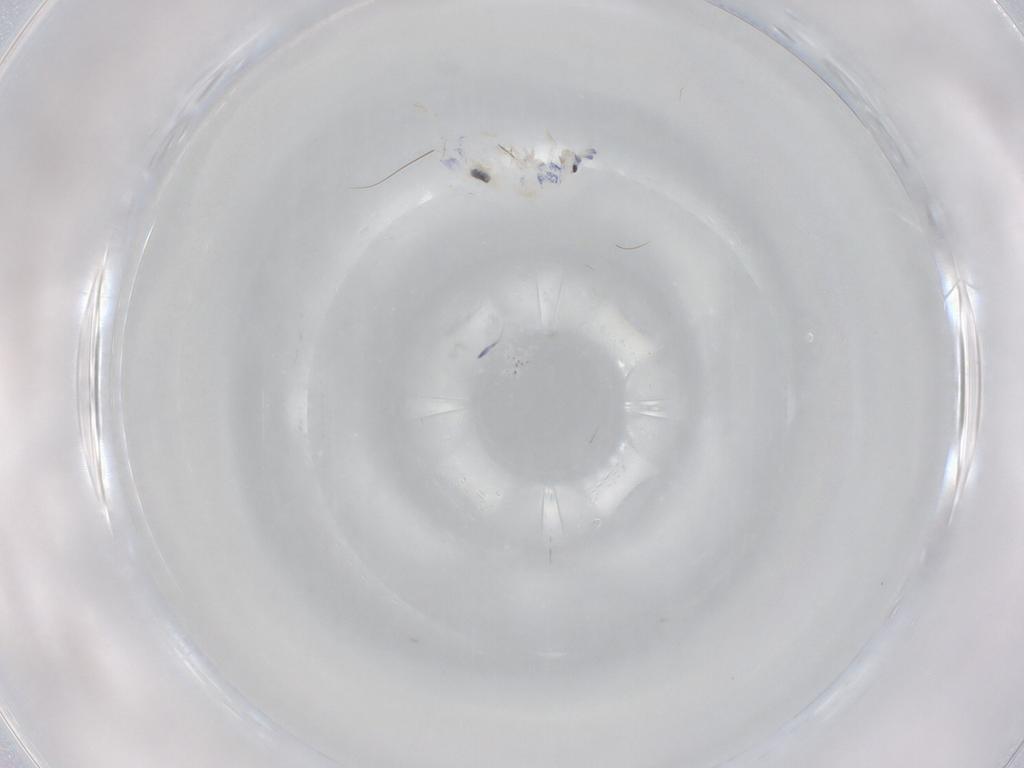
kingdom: Animalia
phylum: Arthropoda
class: Collembola
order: Entomobryomorpha
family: Entomobryidae
